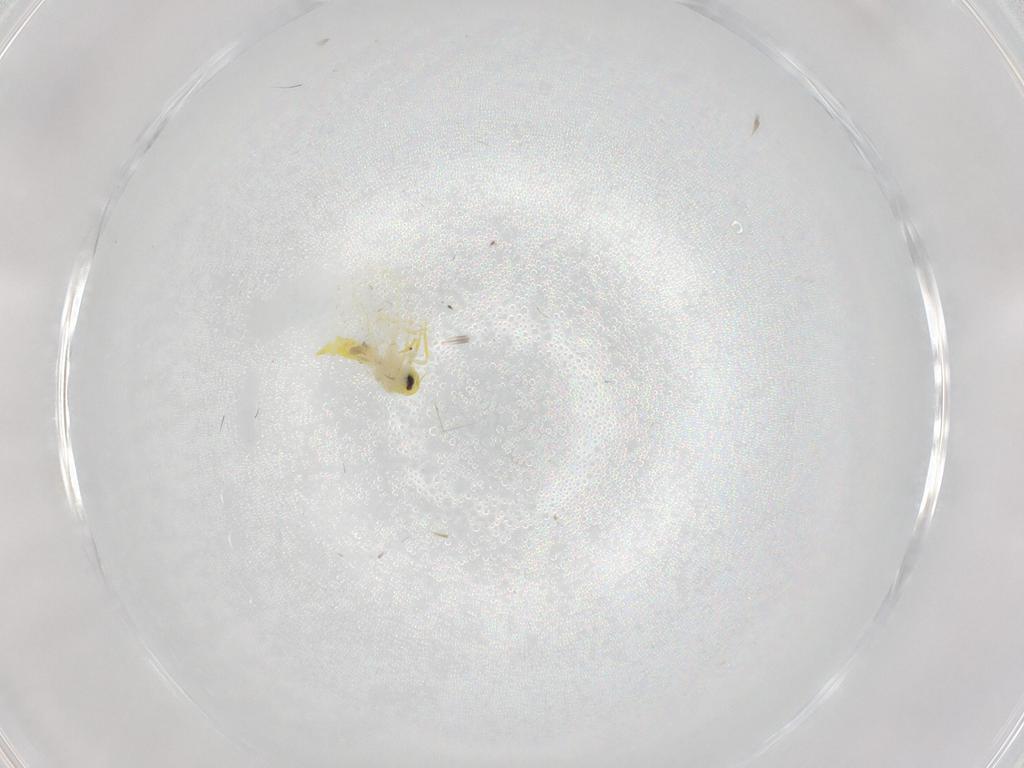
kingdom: Animalia
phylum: Arthropoda
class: Insecta
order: Hemiptera
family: Aleyrodidae
